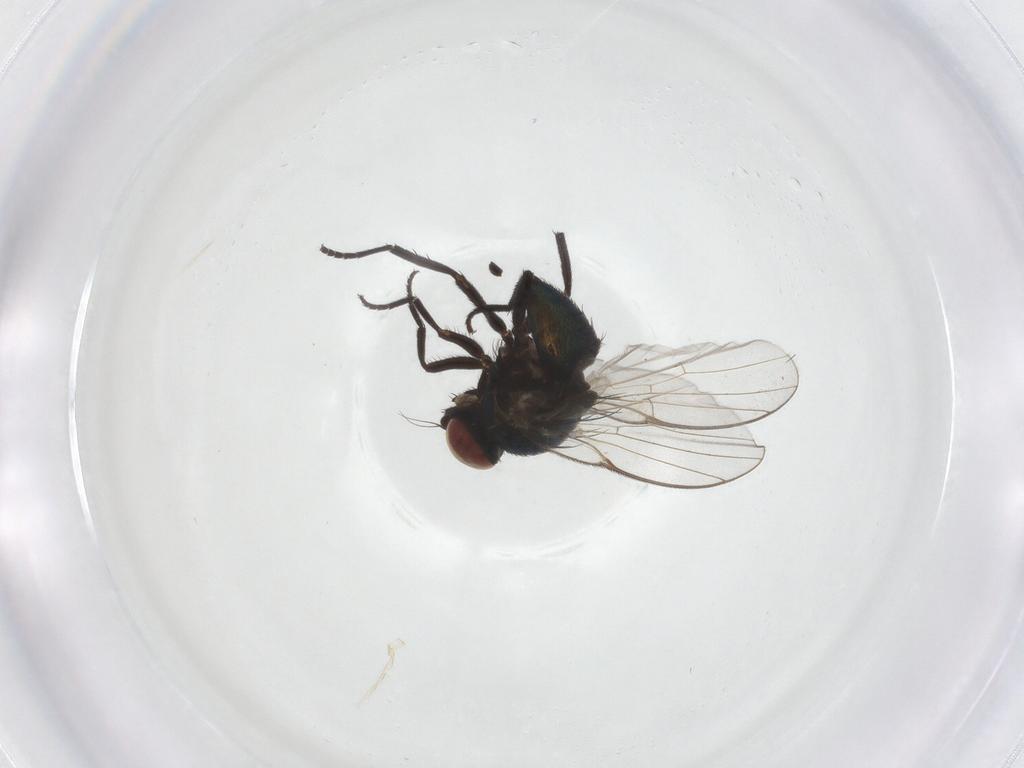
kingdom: Animalia
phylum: Arthropoda
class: Insecta
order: Diptera
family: Agromyzidae
